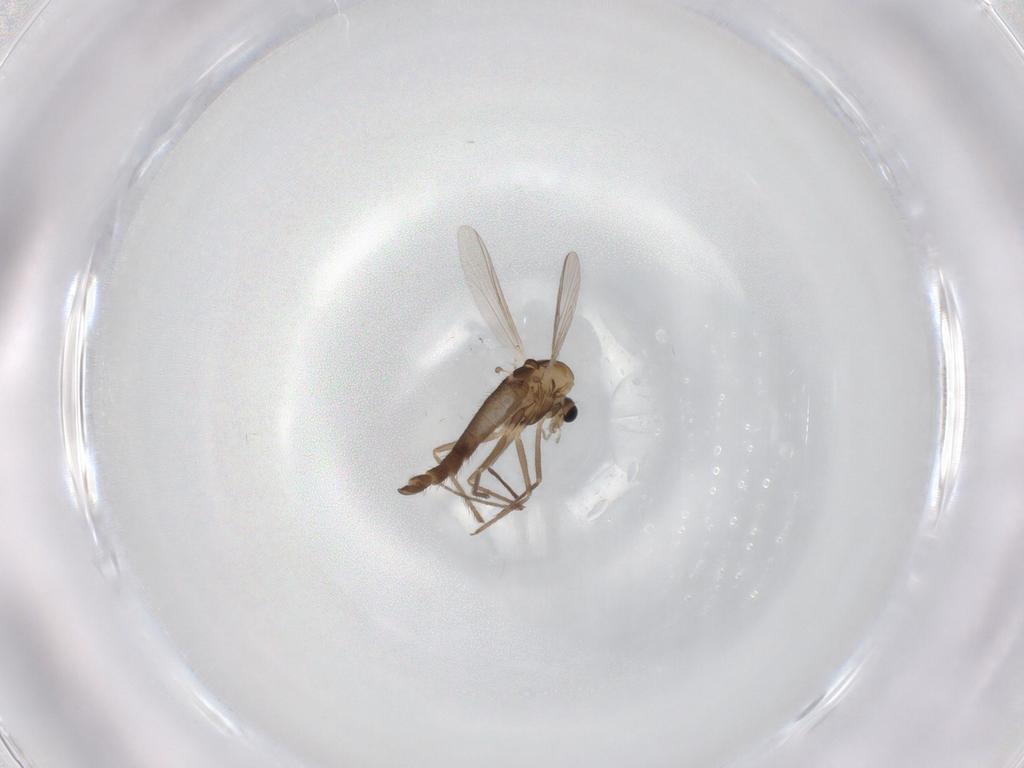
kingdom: Animalia
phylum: Arthropoda
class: Insecta
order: Diptera
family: Chironomidae
